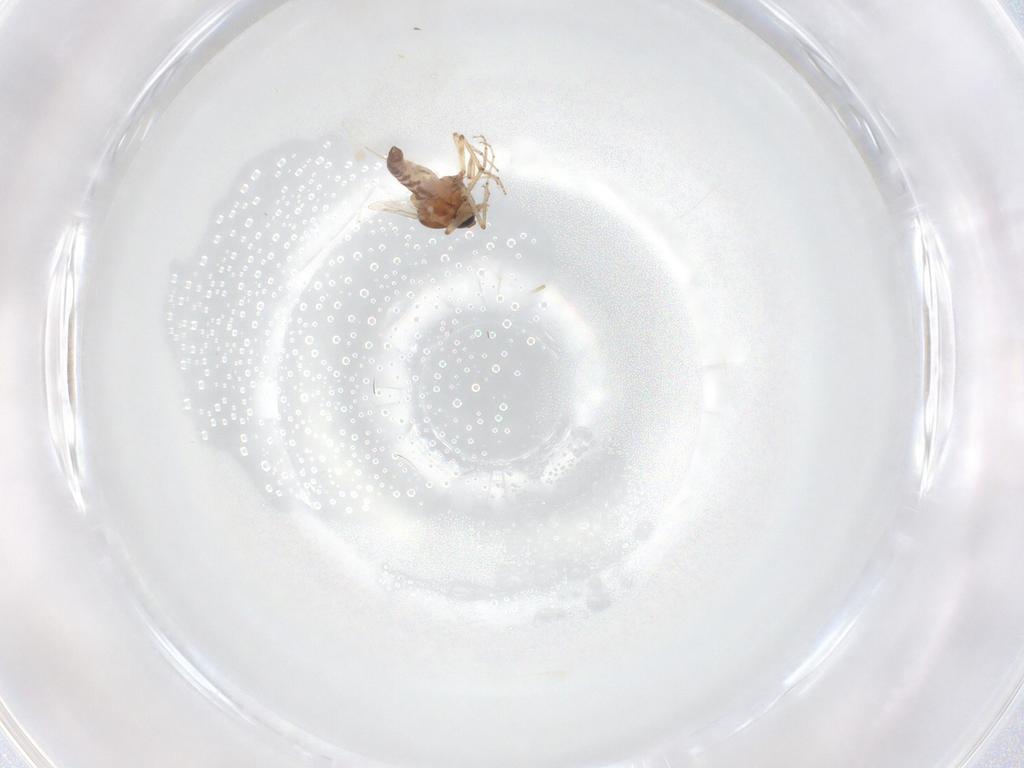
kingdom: Animalia
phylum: Arthropoda
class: Insecta
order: Diptera
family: Ceratopogonidae
